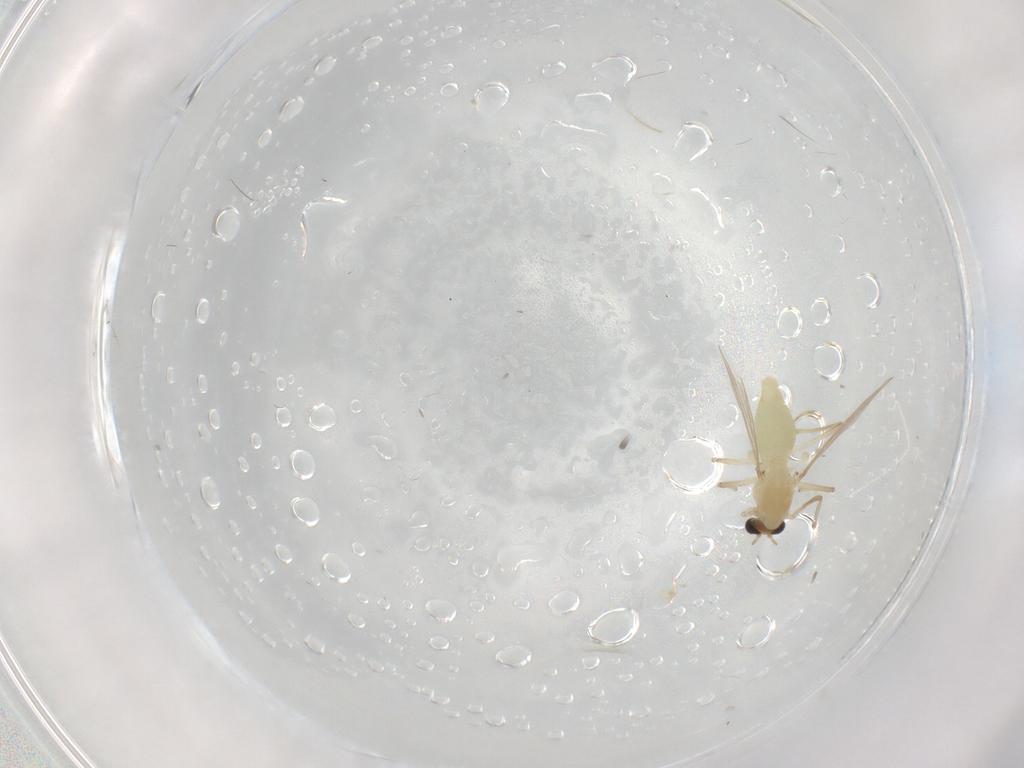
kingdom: Animalia
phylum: Arthropoda
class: Insecta
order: Diptera
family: Chironomidae
